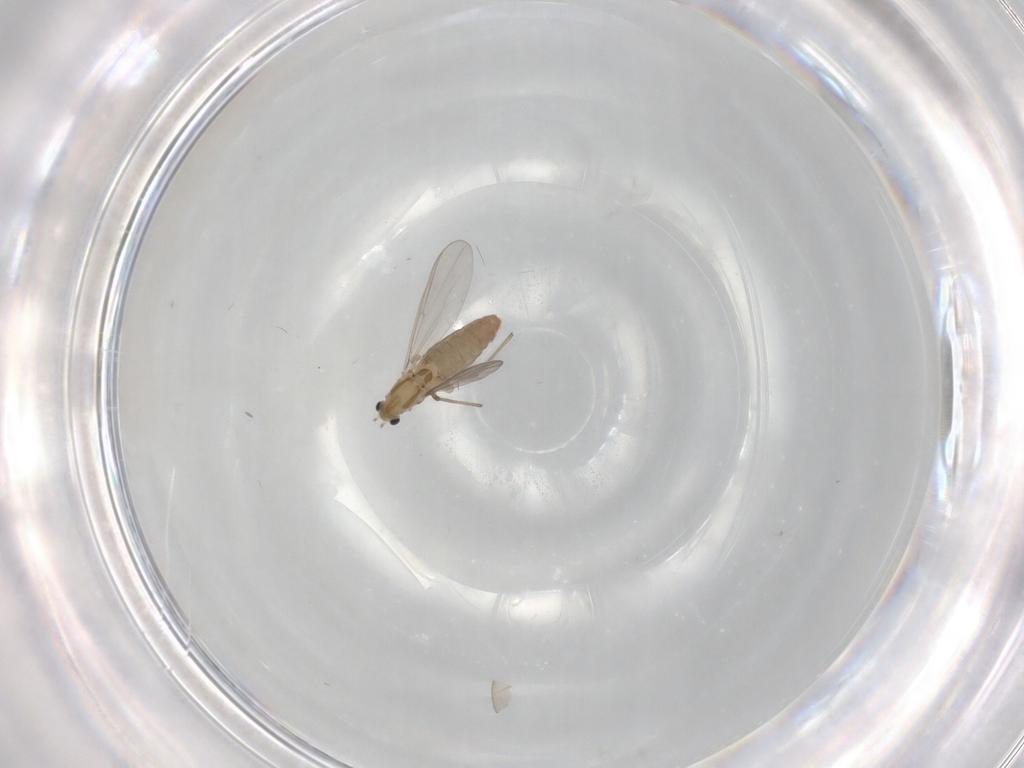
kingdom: Animalia
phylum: Arthropoda
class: Insecta
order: Diptera
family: Chironomidae
